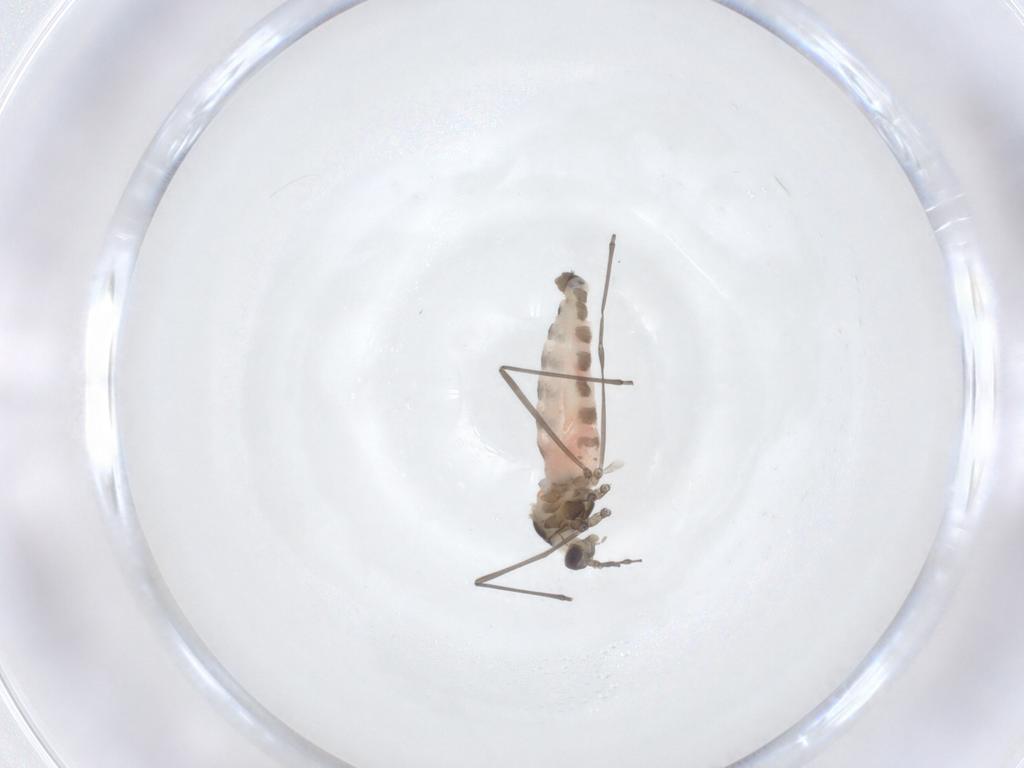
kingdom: Animalia
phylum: Arthropoda
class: Insecta
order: Diptera
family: Cecidomyiidae
